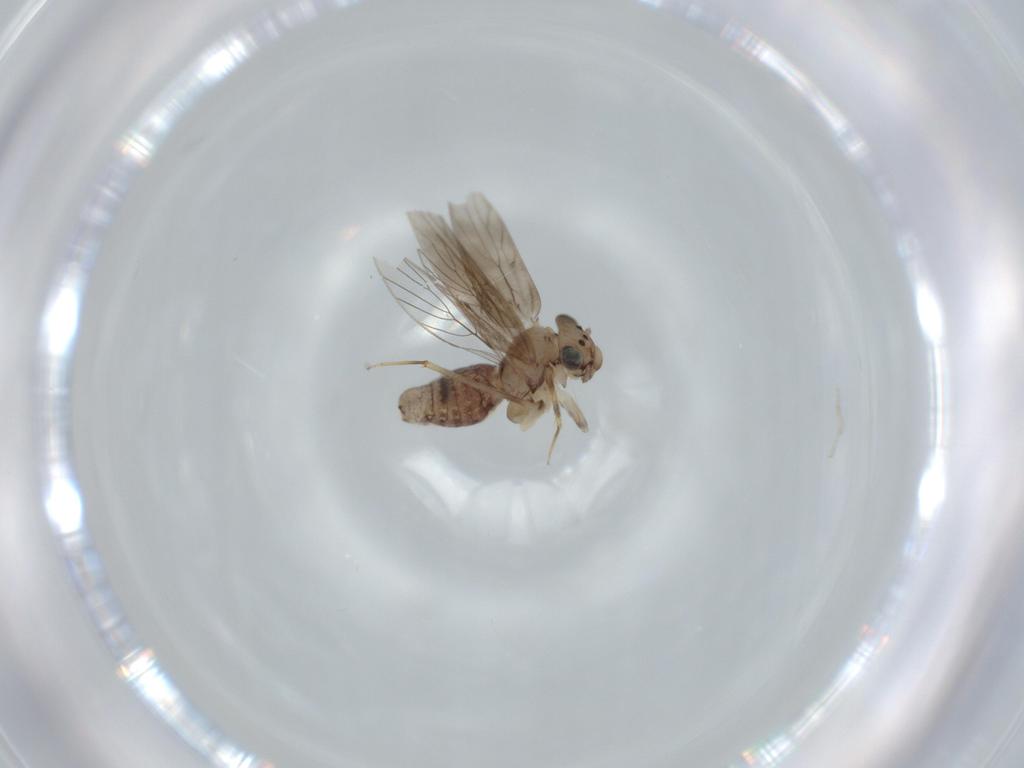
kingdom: Animalia
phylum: Arthropoda
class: Insecta
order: Psocodea
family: Ectopsocidae
